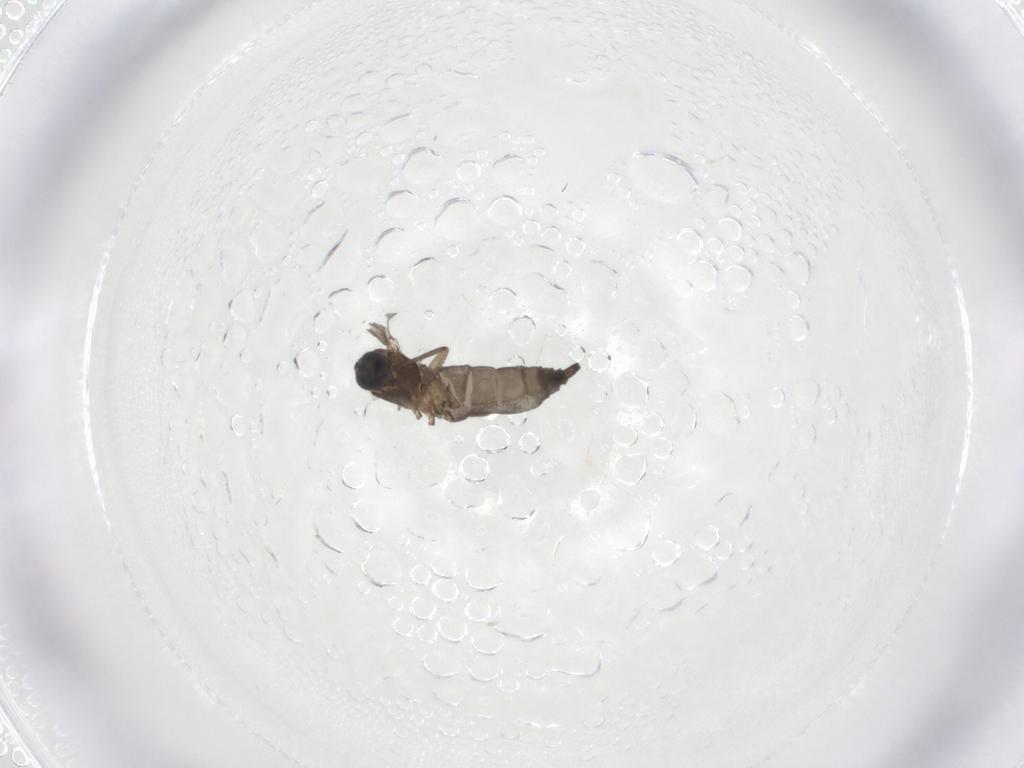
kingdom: Animalia
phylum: Arthropoda
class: Insecta
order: Diptera
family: Sciaridae
